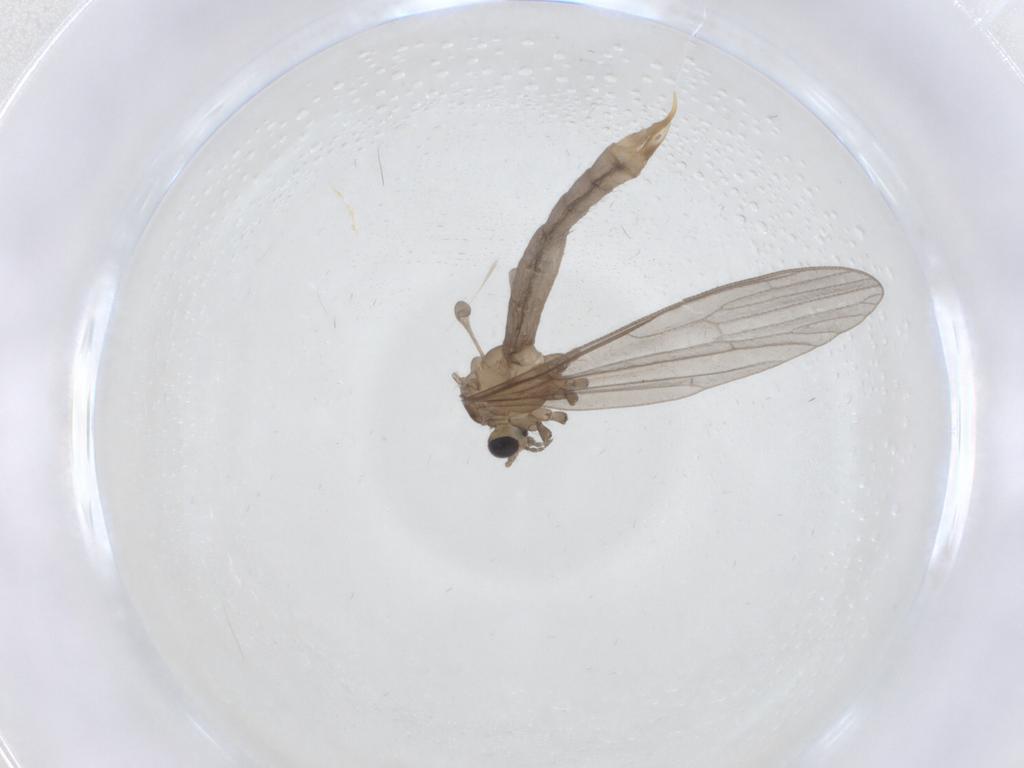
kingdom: Animalia
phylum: Arthropoda
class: Insecta
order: Diptera
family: Limoniidae
